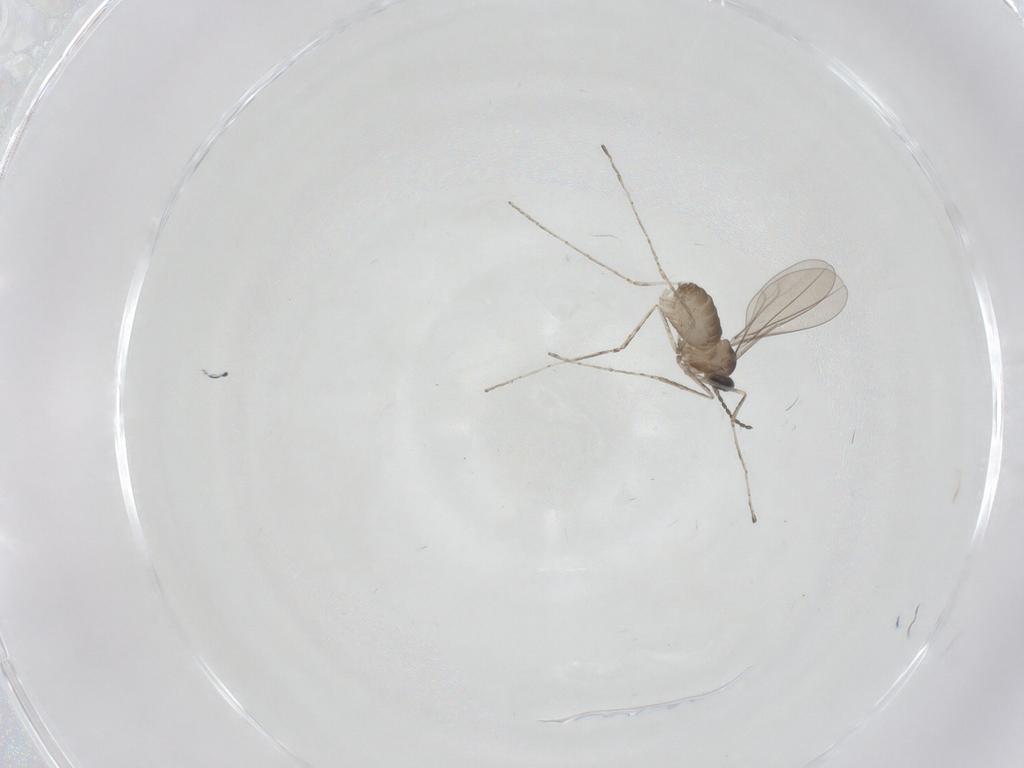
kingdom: Animalia
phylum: Arthropoda
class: Insecta
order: Diptera
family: Cecidomyiidae
